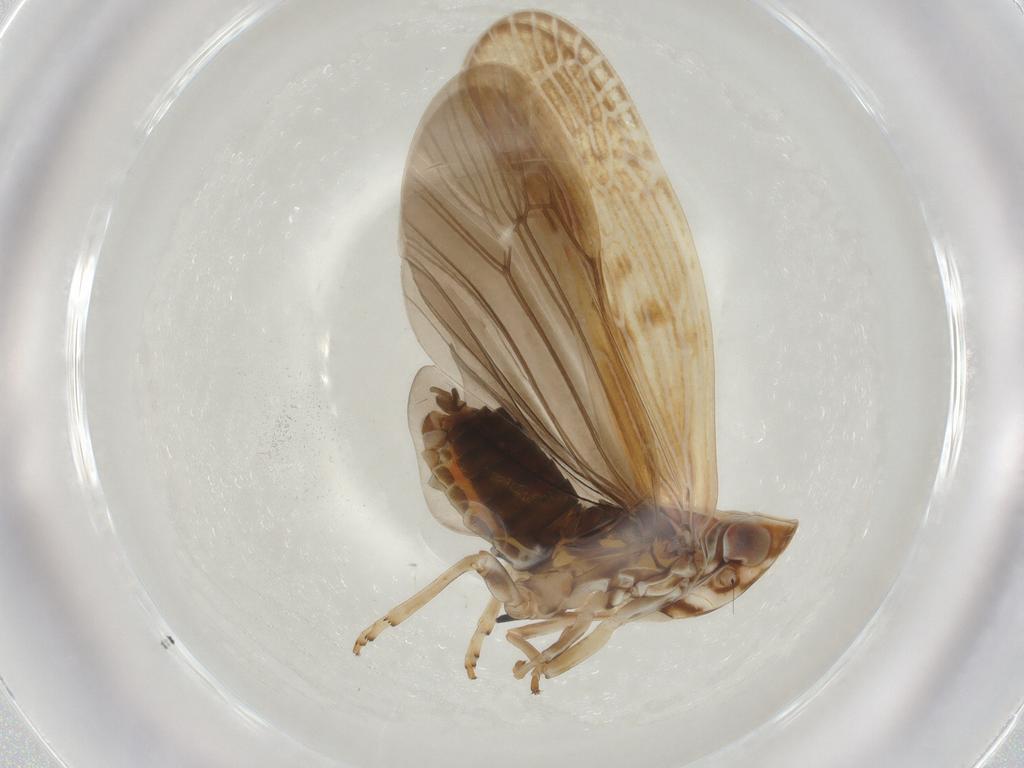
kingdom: Animalia
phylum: Arthropoda
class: Insecta
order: Hemiptera
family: Achilidae
